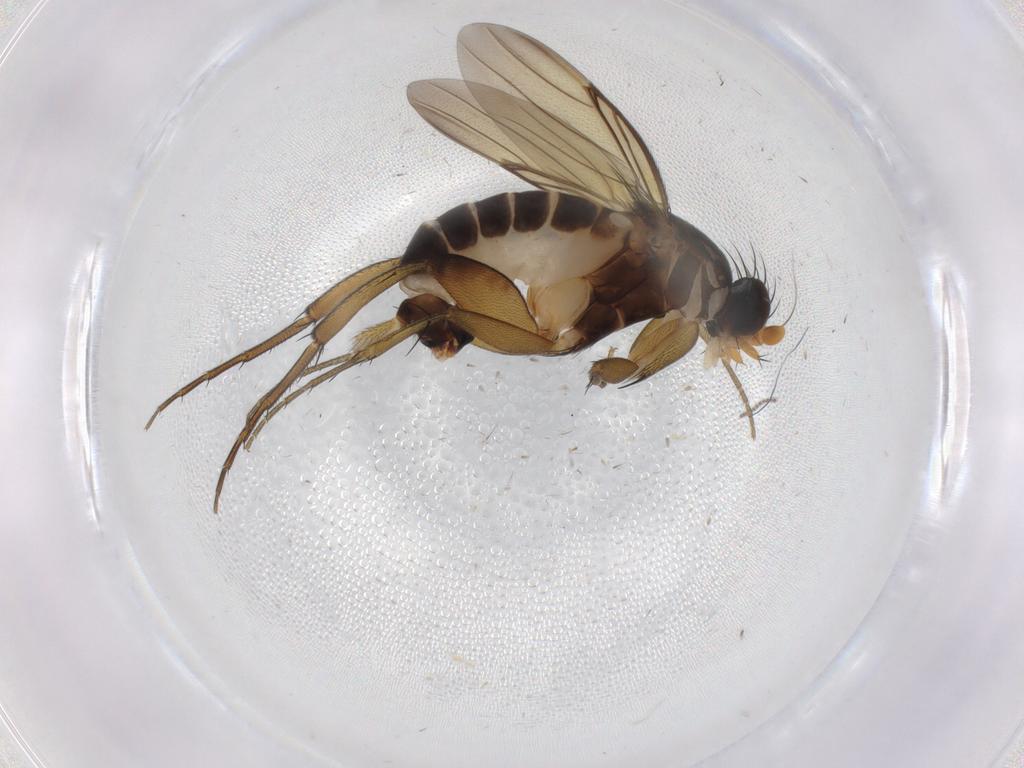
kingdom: Animalia
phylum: Arthropoda
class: Insecta
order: Diptera
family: Phoridae
